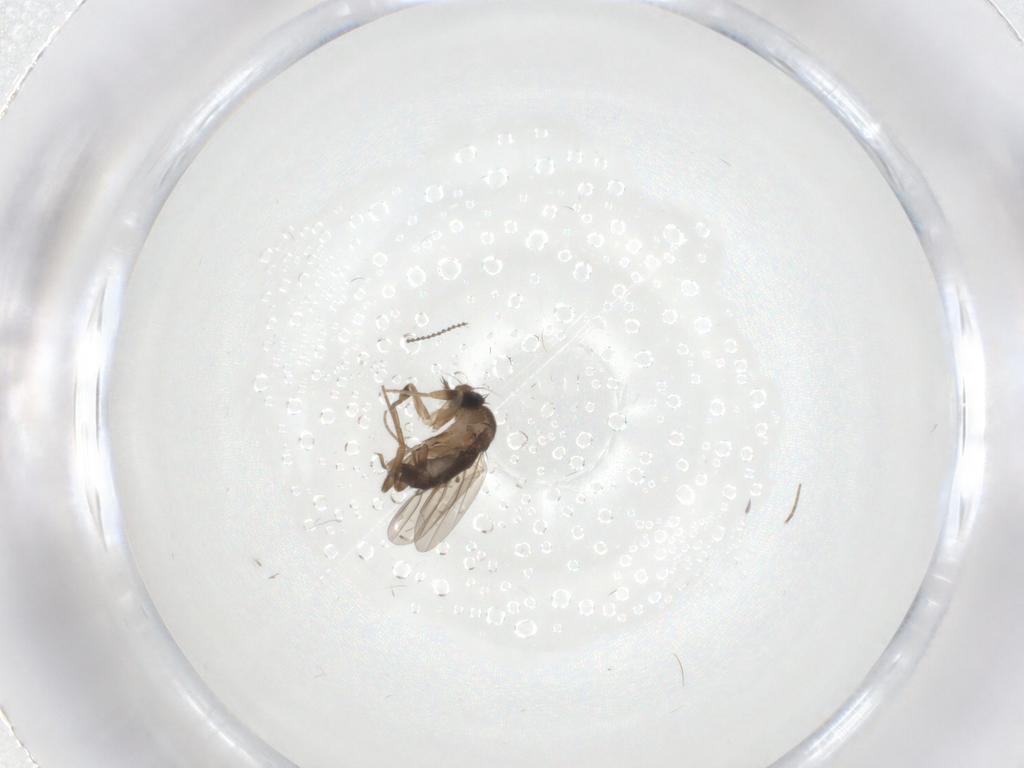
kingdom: Animalia
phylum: Arthropoda
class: Insecta
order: Diptera
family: Phoridae
